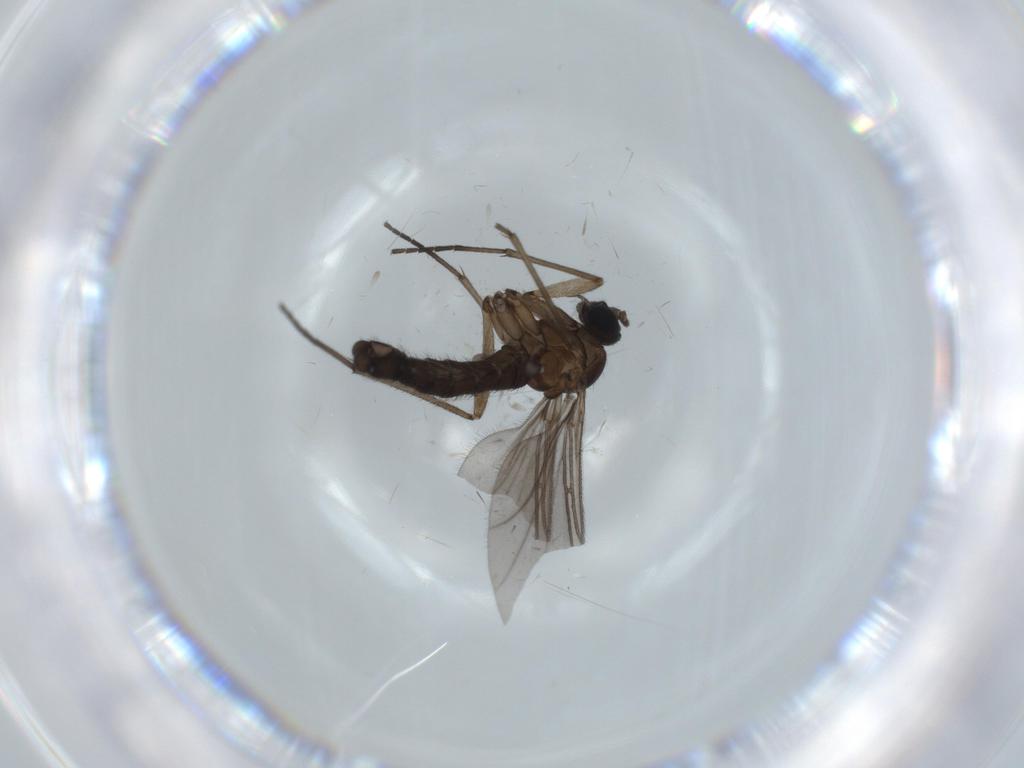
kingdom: Animalia
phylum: Arthropoda
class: Insecta
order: Diptera
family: Sciaridae
